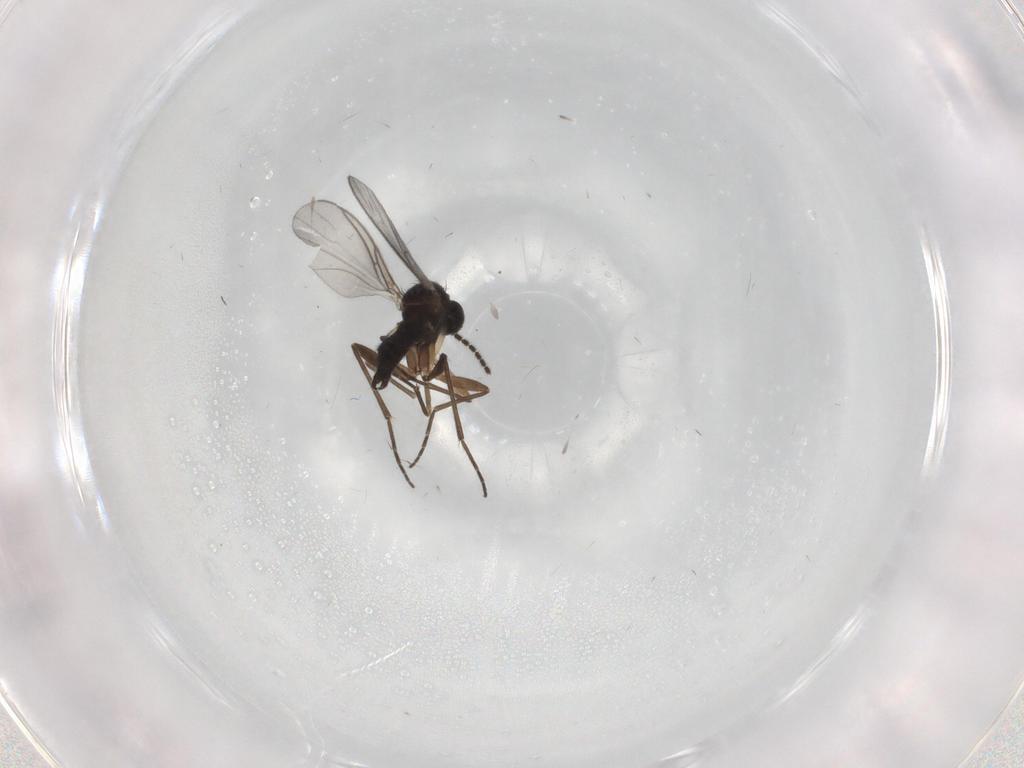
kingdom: Animalia
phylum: Arthropoda
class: Insecta
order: Diptera
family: Sciaridae
